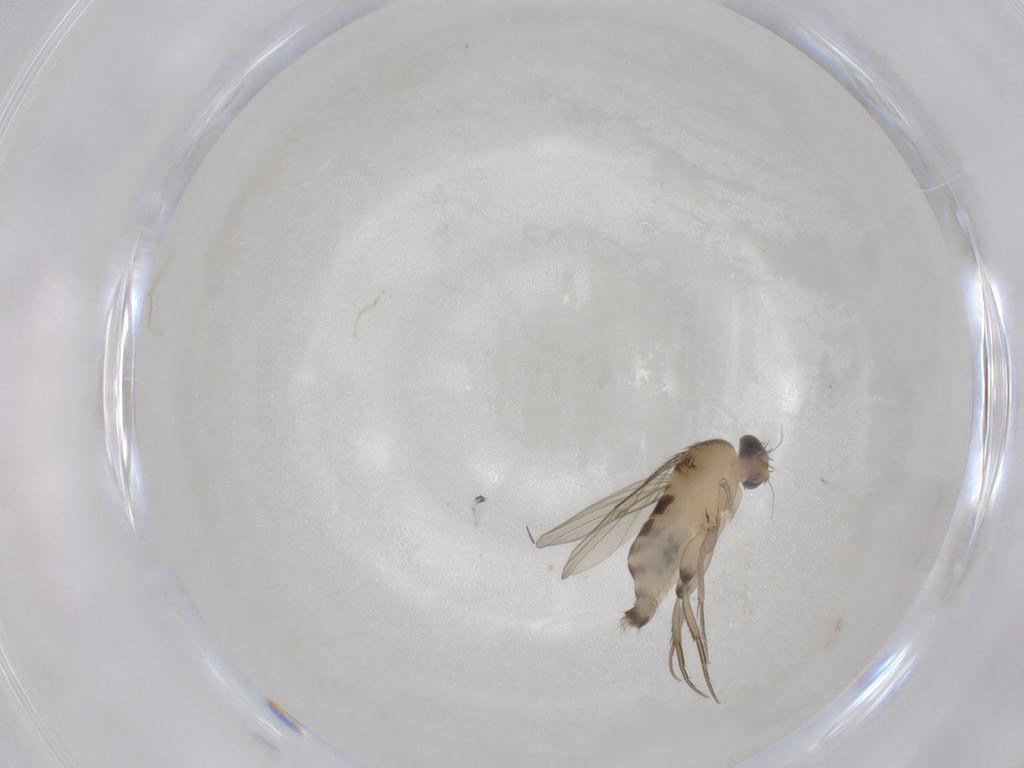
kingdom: Animalia
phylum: Arthropoda
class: Insecta
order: Diptera
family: Phoridae
